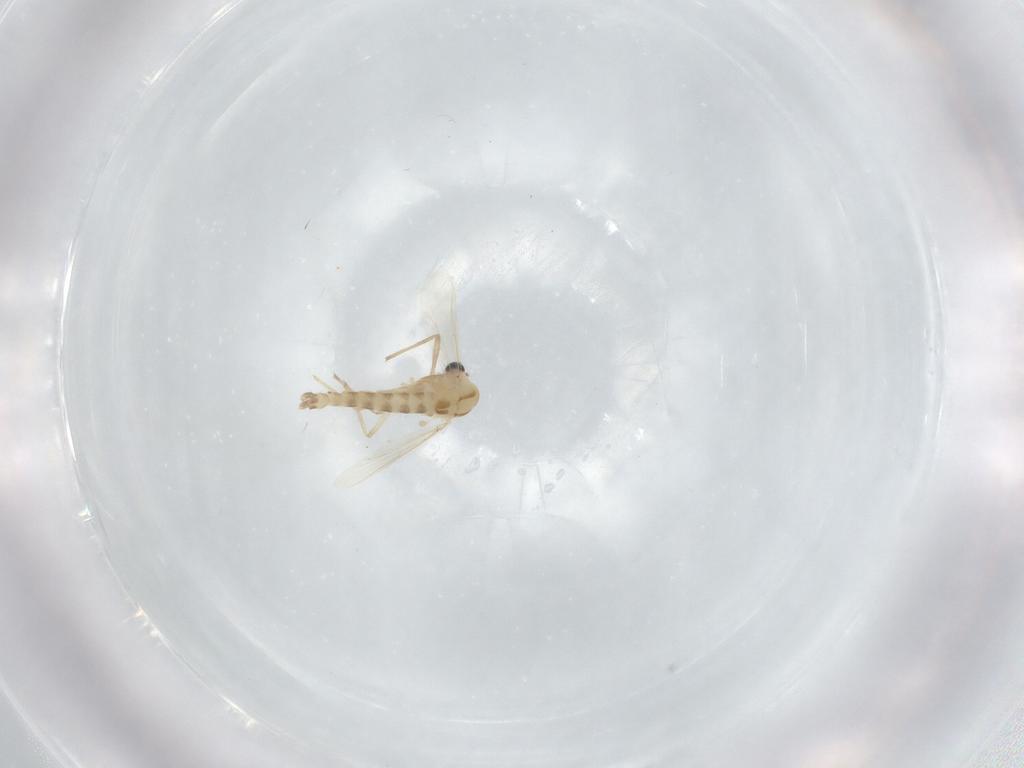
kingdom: Animalia
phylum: Arthropoda
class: Insecta
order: Diptera
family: Chironomidae
